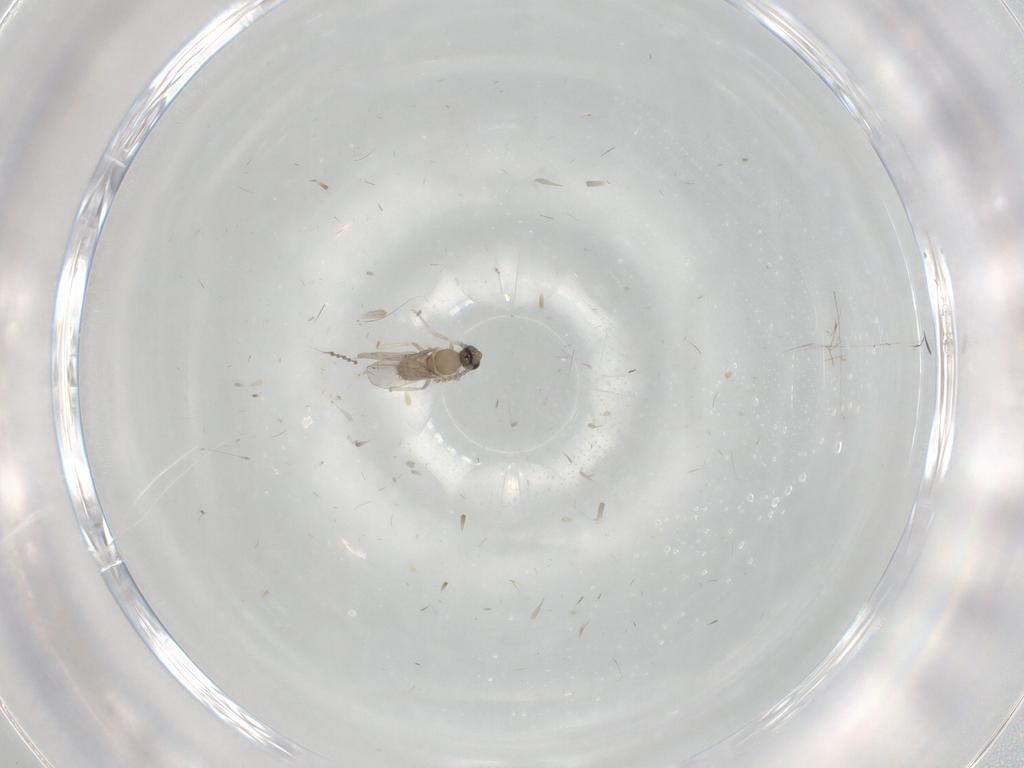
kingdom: Animalia
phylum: Arthropoda
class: Insecta
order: Diptera
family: Cecidomyiidae
